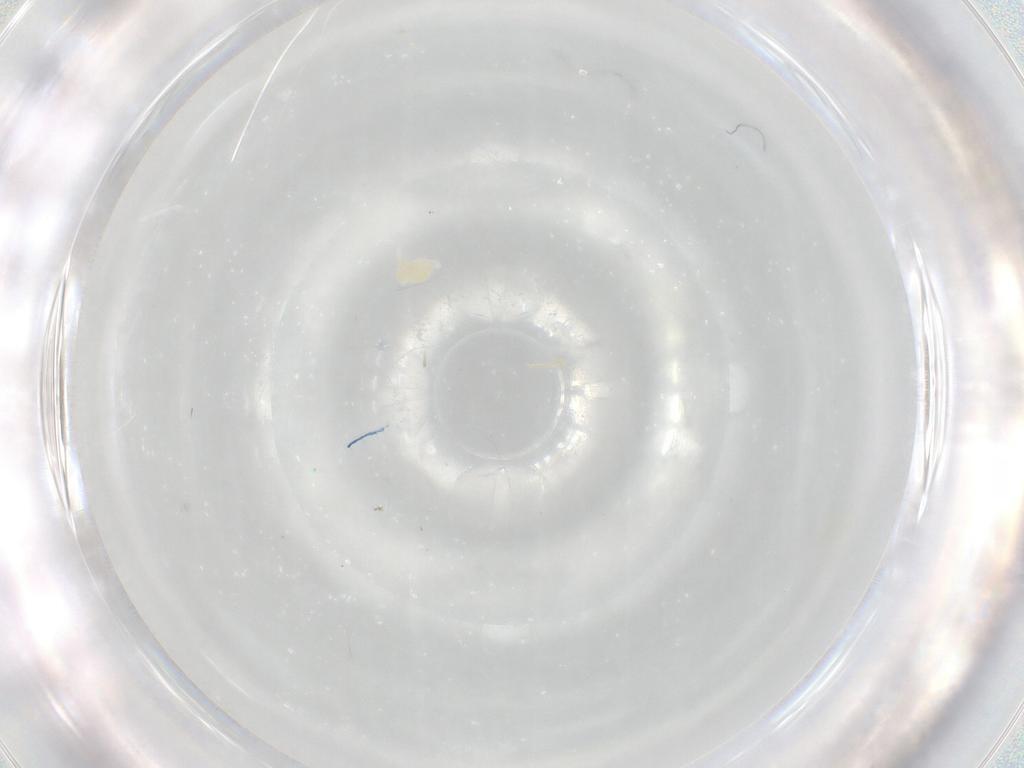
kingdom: Animalia
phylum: Arthropoda
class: Arachnida
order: Trombidiformes
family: Eupodidae
